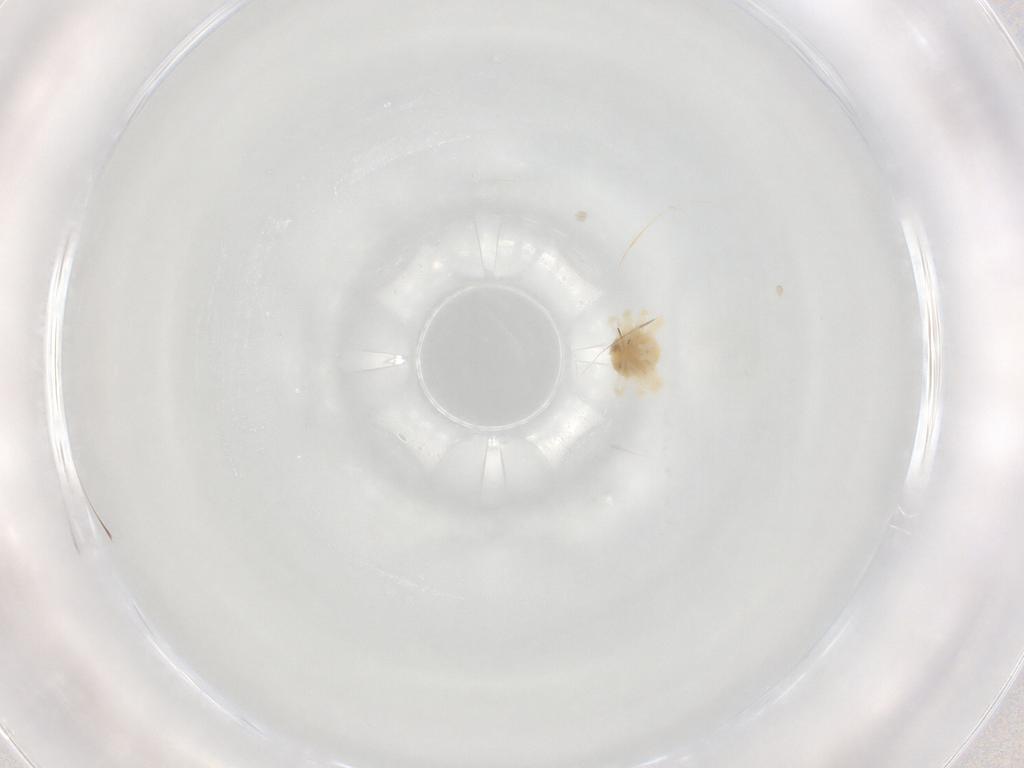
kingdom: Animalia
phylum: Arthropoda
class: Arachnida
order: Trombidiformes
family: Anystidae
